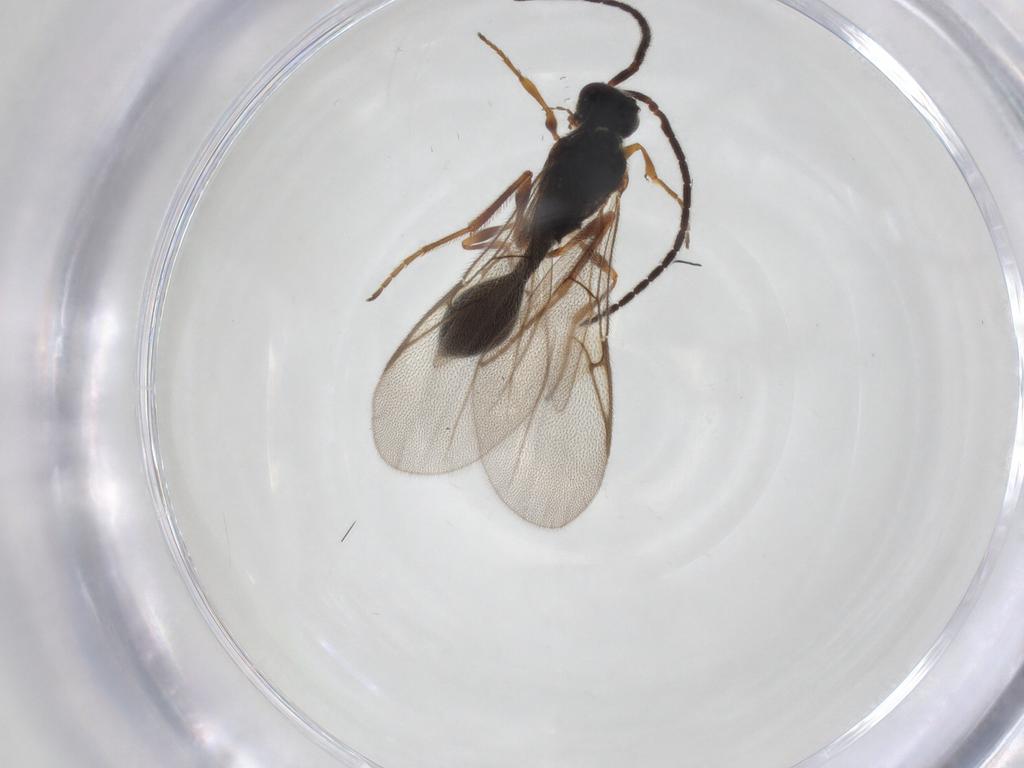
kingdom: Animalia
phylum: Arthropoda
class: Insecta
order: Hymenoptera
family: Diapriidae
